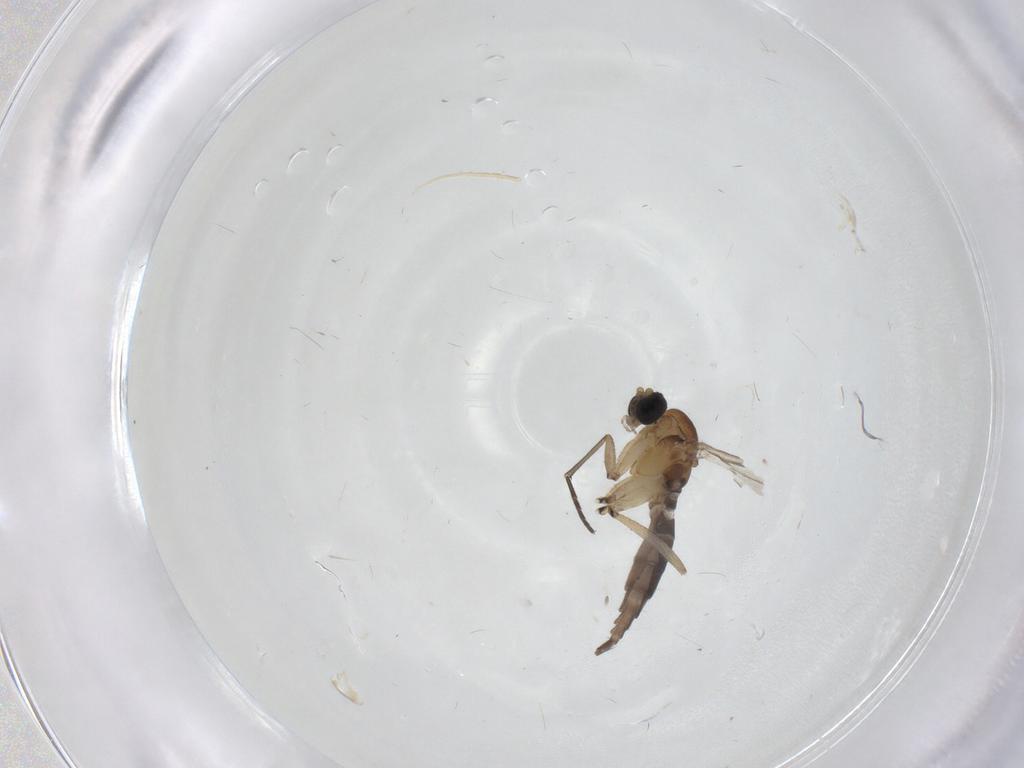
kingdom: Animalia
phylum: Arthropoda
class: Insecta
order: Diptera
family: Sciaridae
